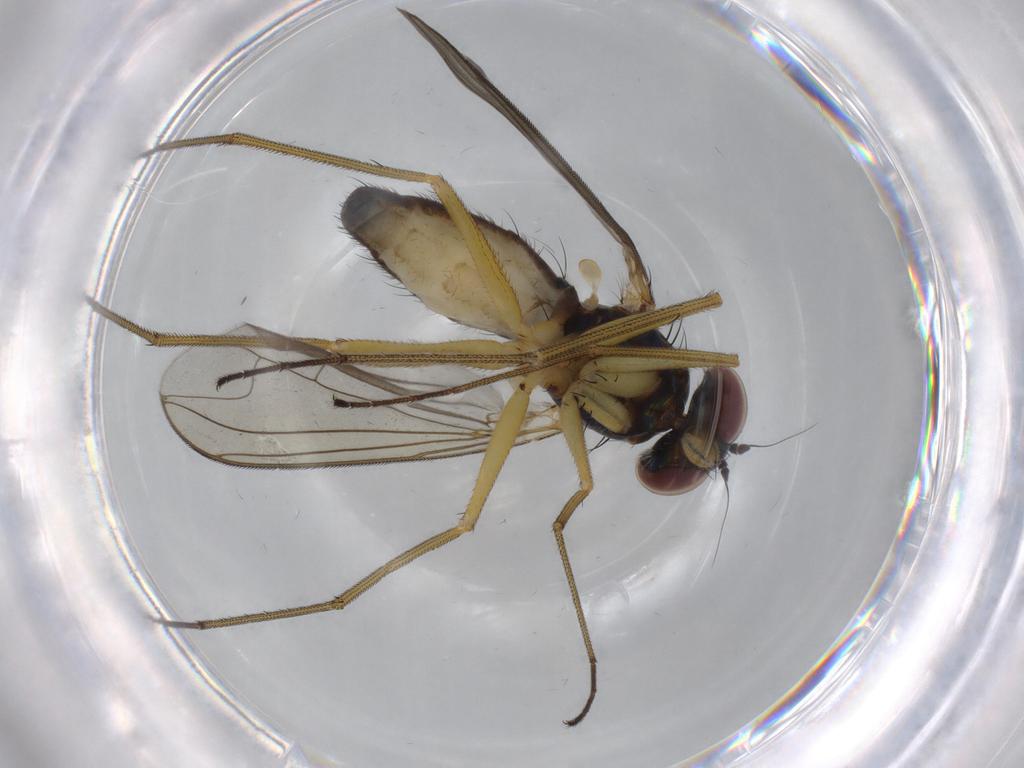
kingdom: Animalia
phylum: Arthropoda
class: Insecta
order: Diptera
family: Dolichopodidae
